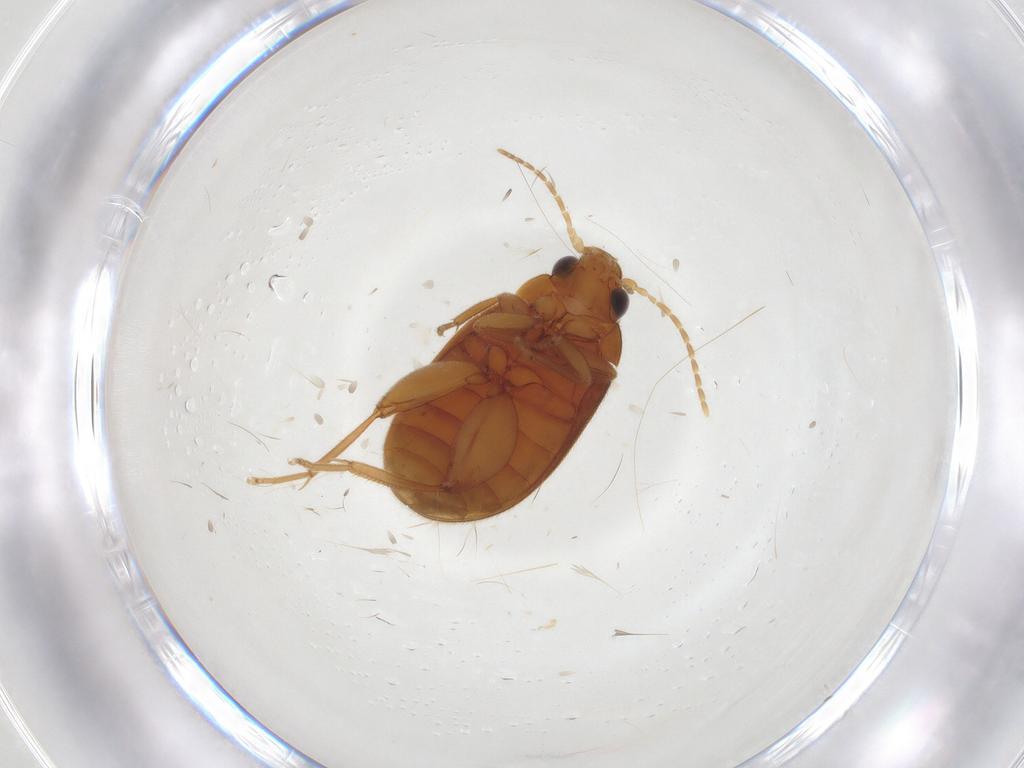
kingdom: Animalia
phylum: Arthropoda
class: Insecta
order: Coleoptera
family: Scirtidae
